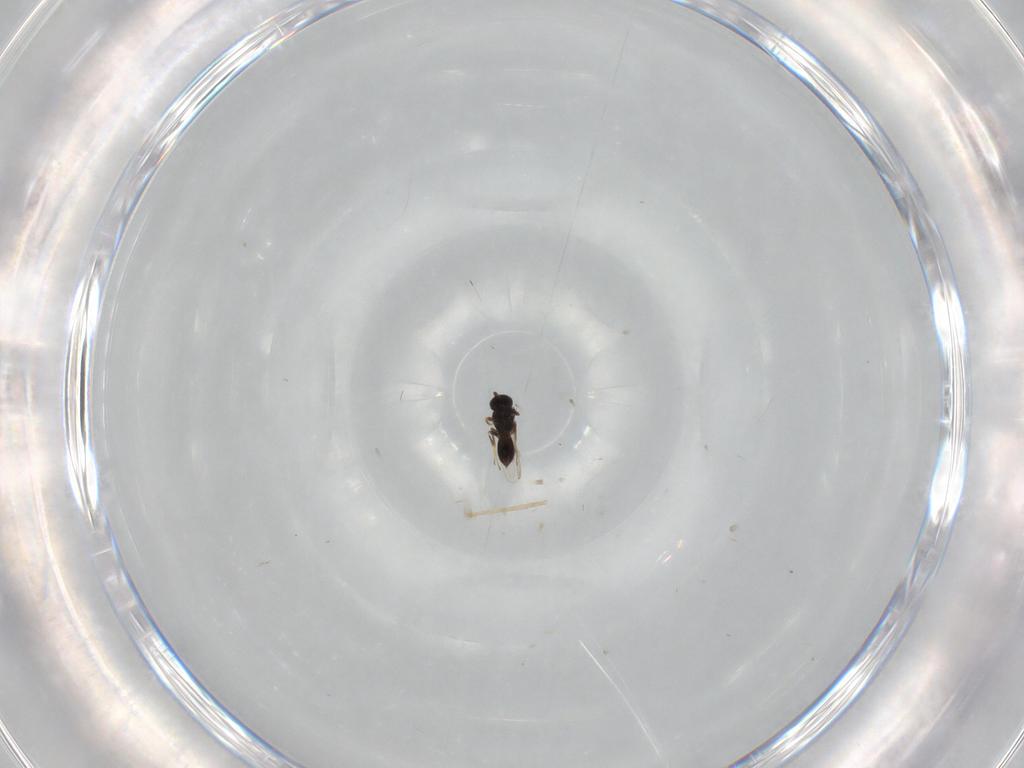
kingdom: Animalia
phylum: Arthropoda
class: Insecta
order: Hymenoptera
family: Scelionidae
